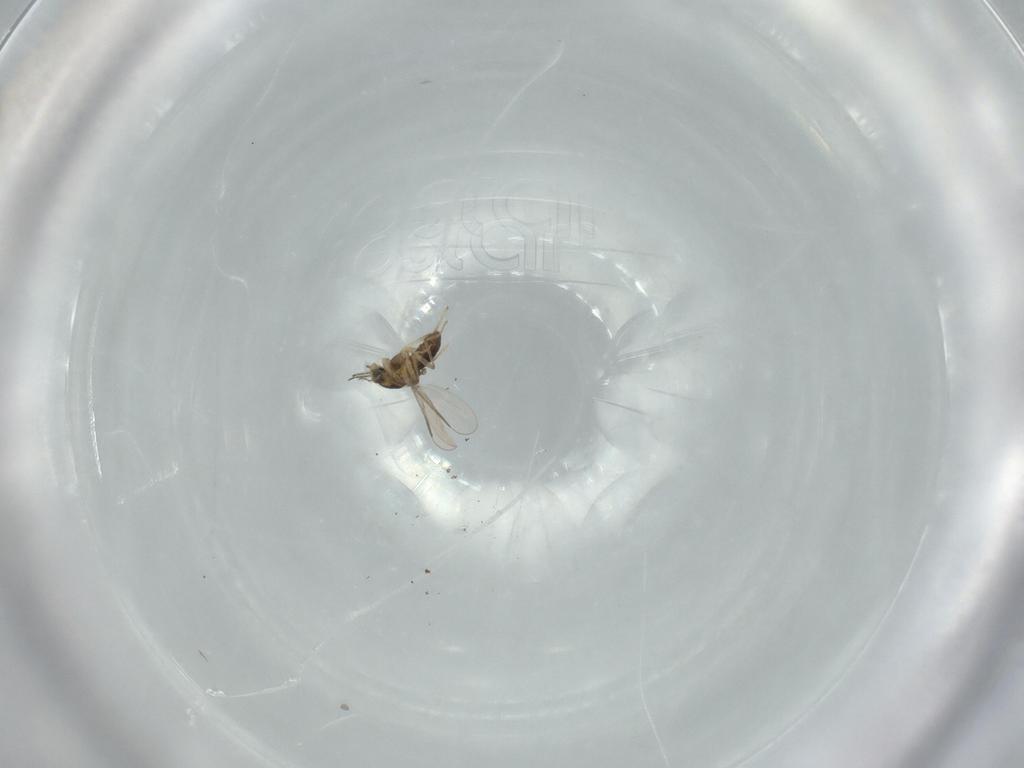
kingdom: Animalia
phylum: Arthropoda
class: Insecta
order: Diptera
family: Chironomidae
